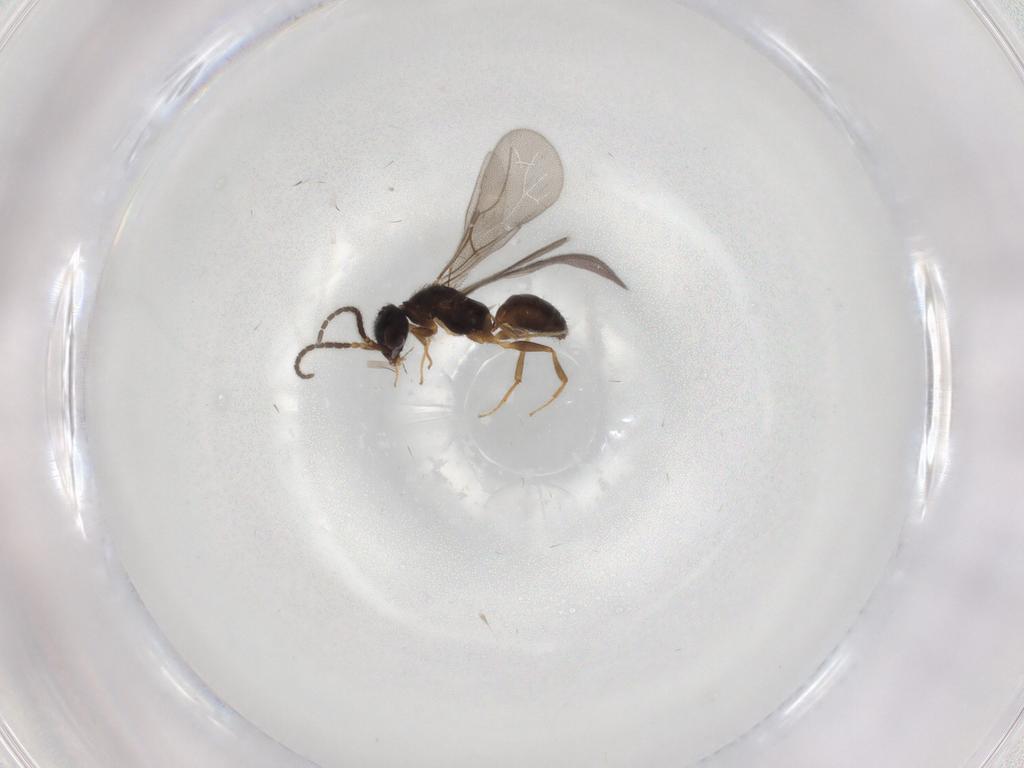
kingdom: Animalia
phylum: Arthropoda
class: Insecta
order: Hymenoptera
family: Bethylidae
